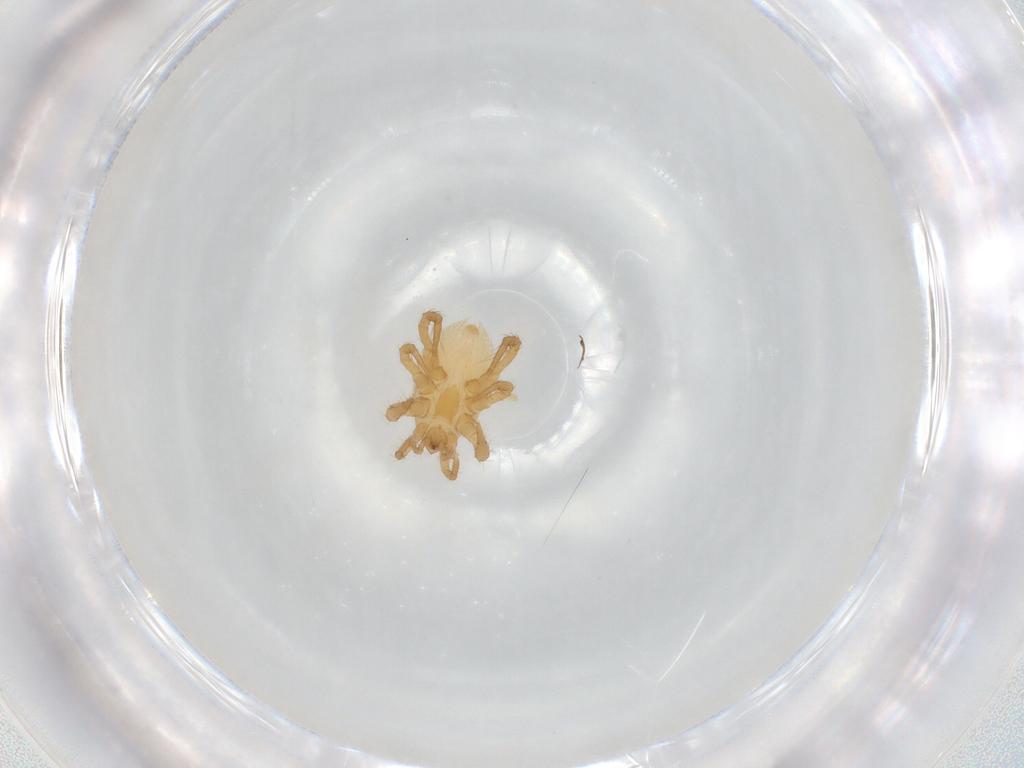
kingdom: Animalia
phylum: Arthropoda
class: Arachnida
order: Mesostigmata
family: Parasitidae
